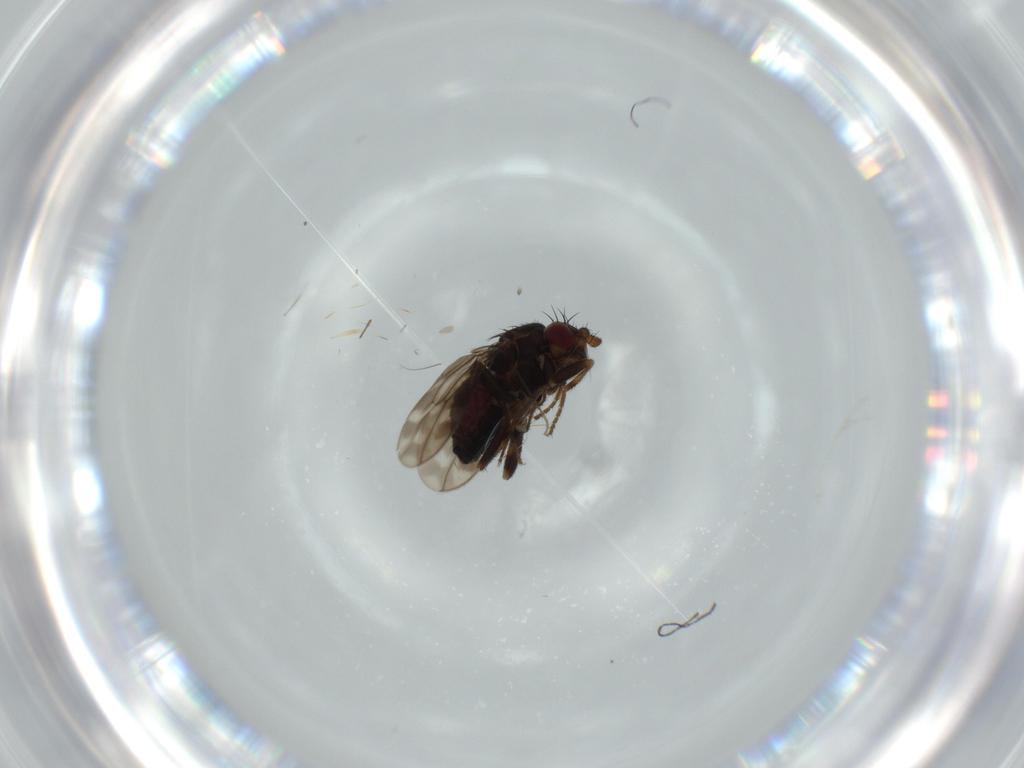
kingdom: Animalia
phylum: Arthropoda
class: Insecta
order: Diptera
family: Sphaeroceridae
